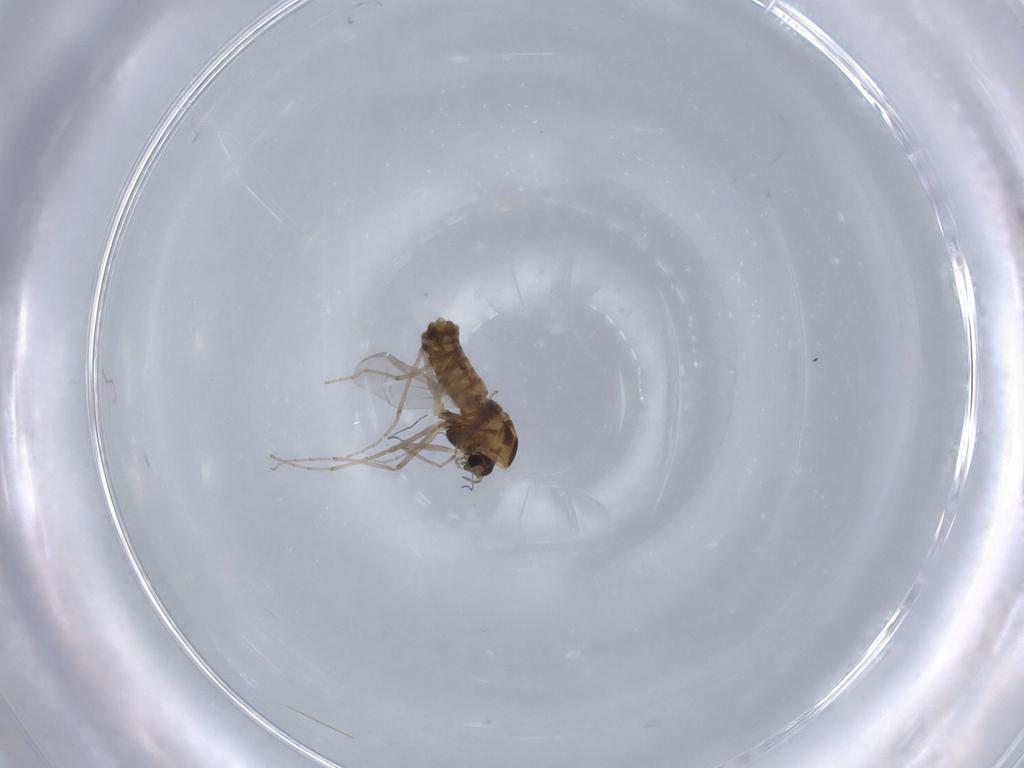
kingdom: Animalia
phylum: Arthropoda
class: Insecta
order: Diptera
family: Chironomidae
